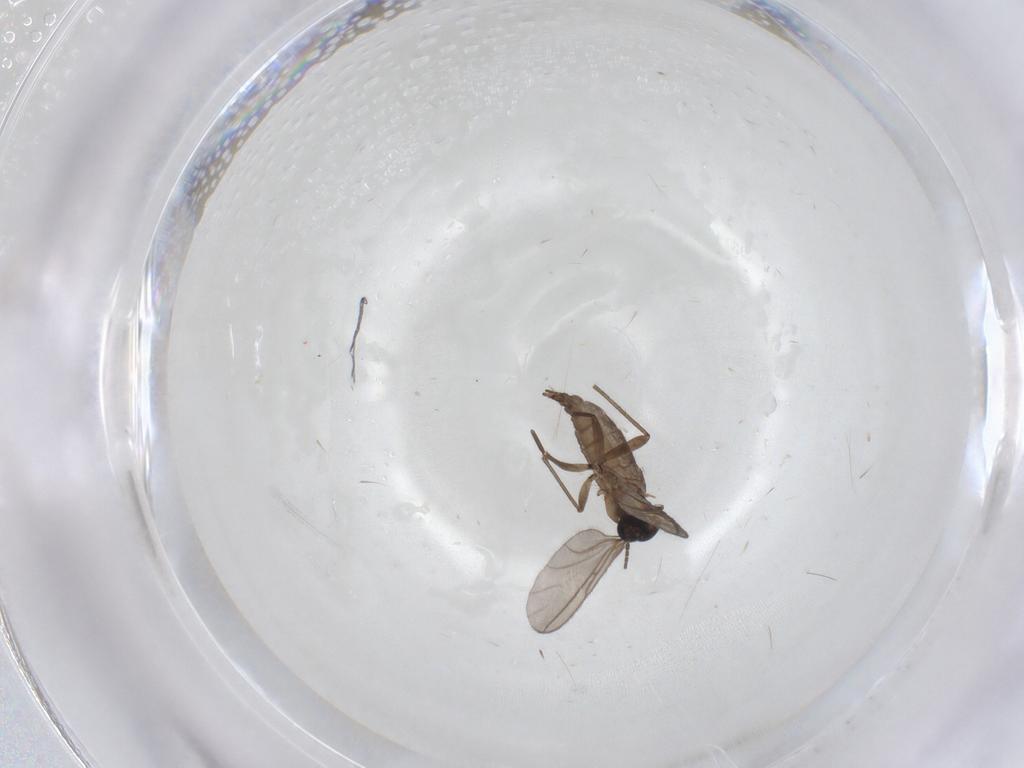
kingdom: Animalia
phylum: Arthropoda
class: Insecta
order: Diptera
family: Sciaridae
